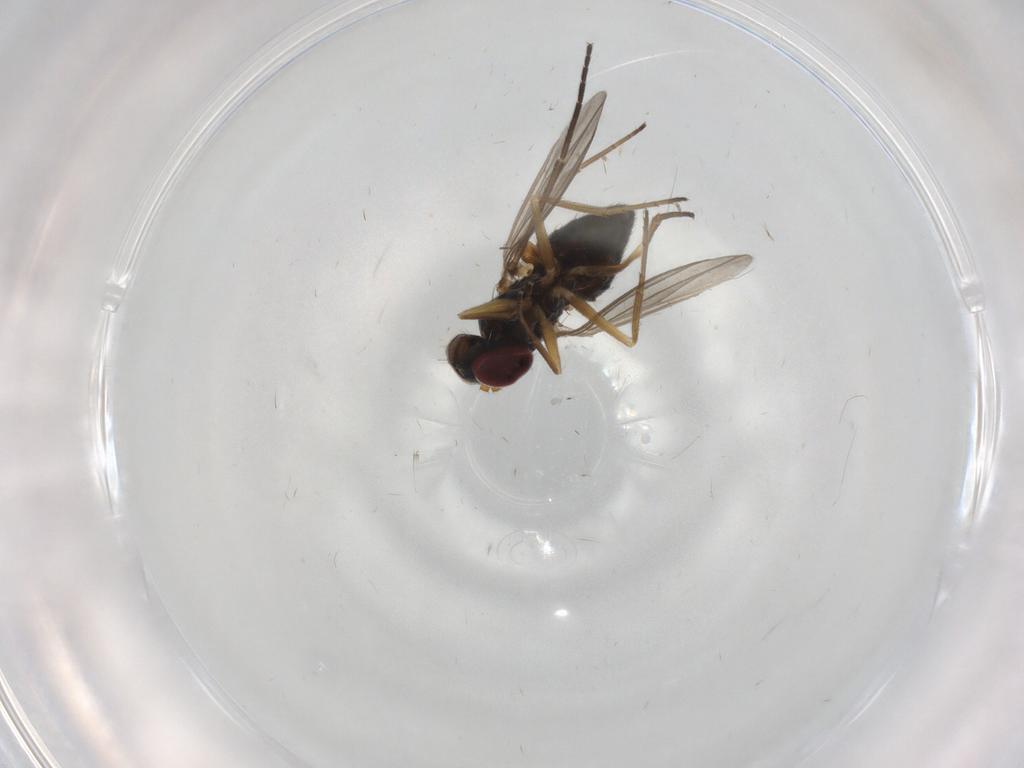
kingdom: Animalia
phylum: Arthropoda
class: Insecta
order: Diptera
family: Sciaridae
